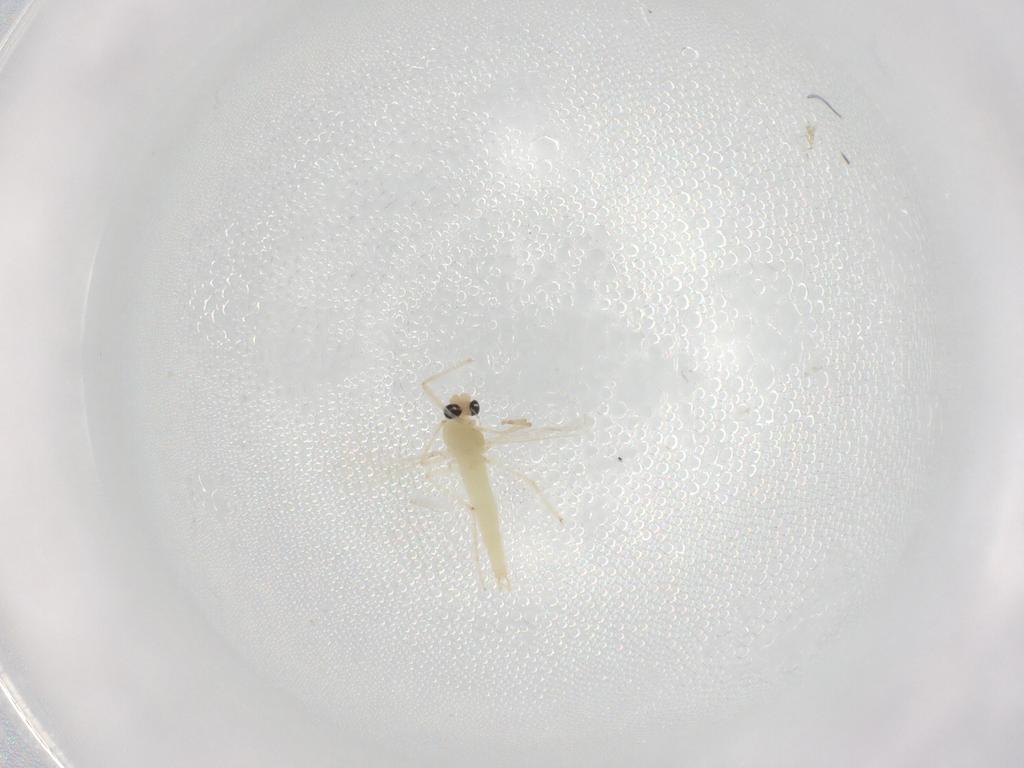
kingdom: Animalia
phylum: Arthropoda
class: Insecta
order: Diptera
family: Chironomidae
